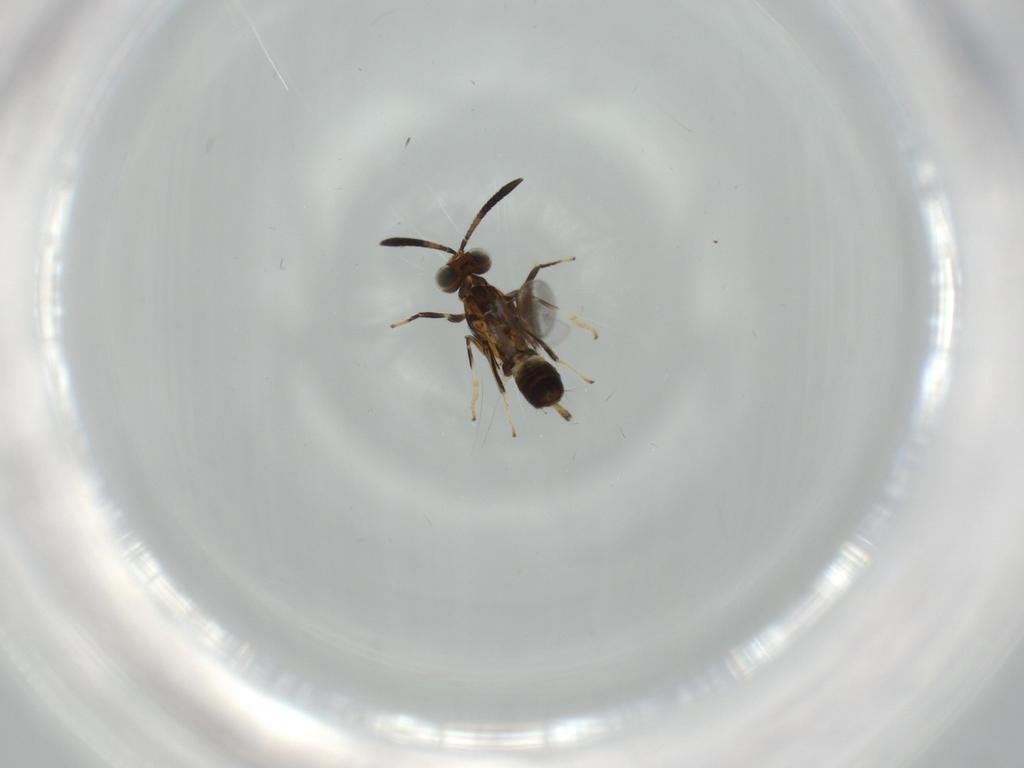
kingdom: Animalia
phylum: Arthropoda
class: Insecta
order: Hymenoptera
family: Eupelmidae
